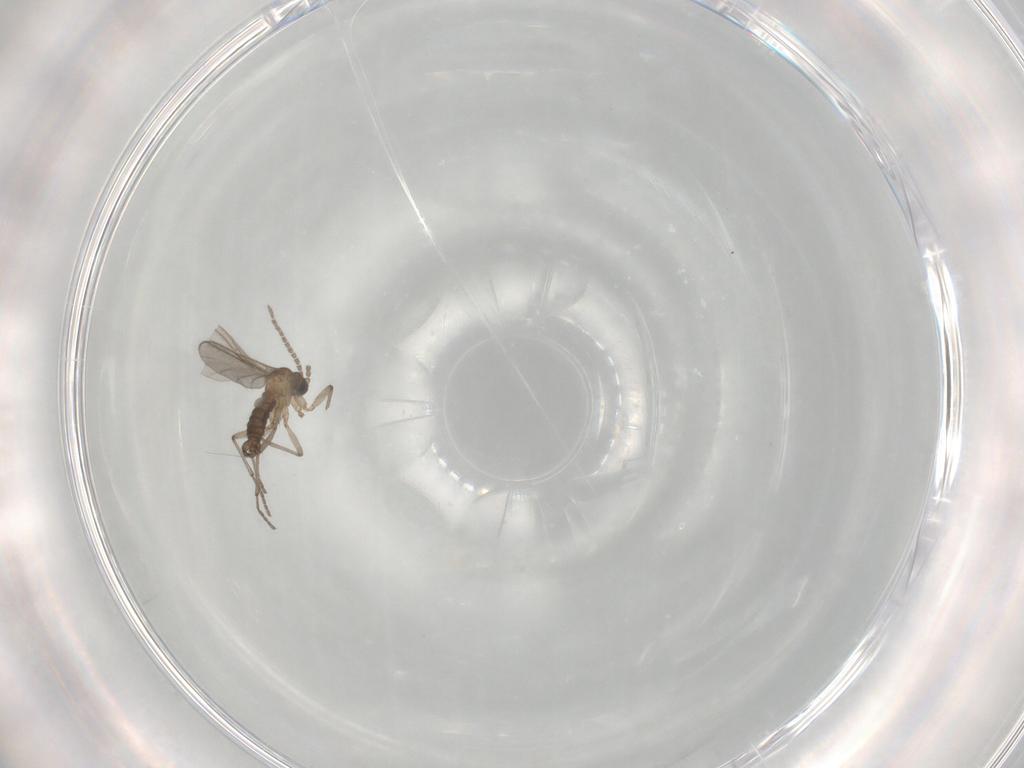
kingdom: Animalia
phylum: Arthropoda
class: Insecta
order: Diptera
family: Sciaridae
